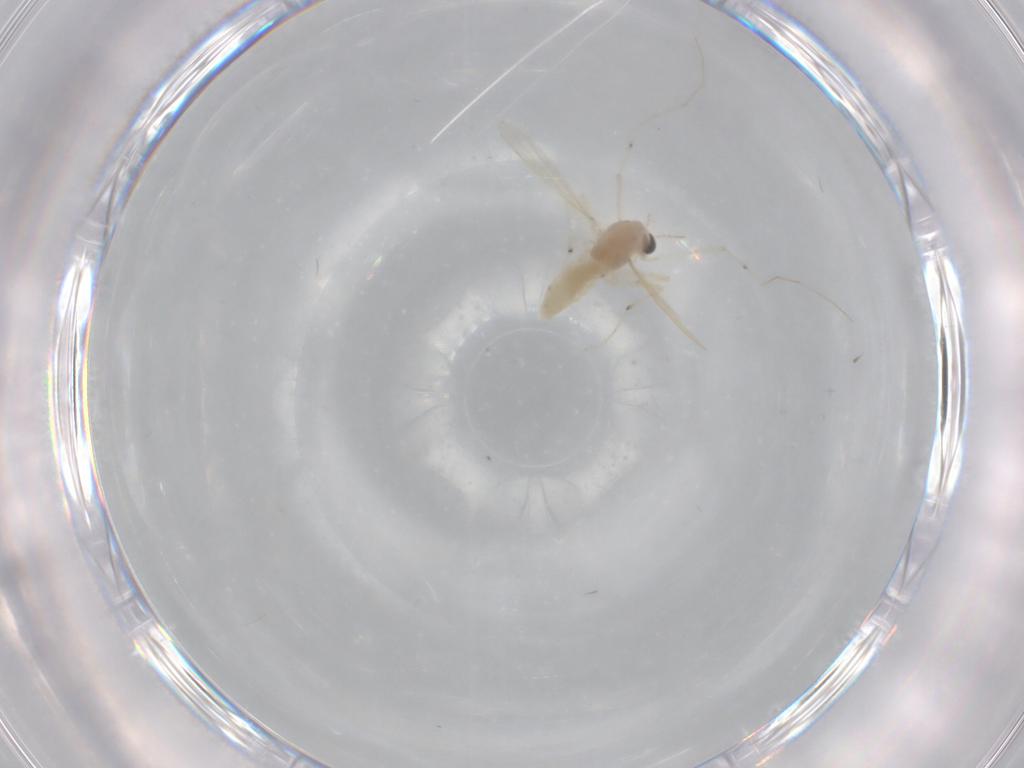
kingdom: Animalia
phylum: Arthropoda
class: Insecta
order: Diptera
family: Chironomidae
